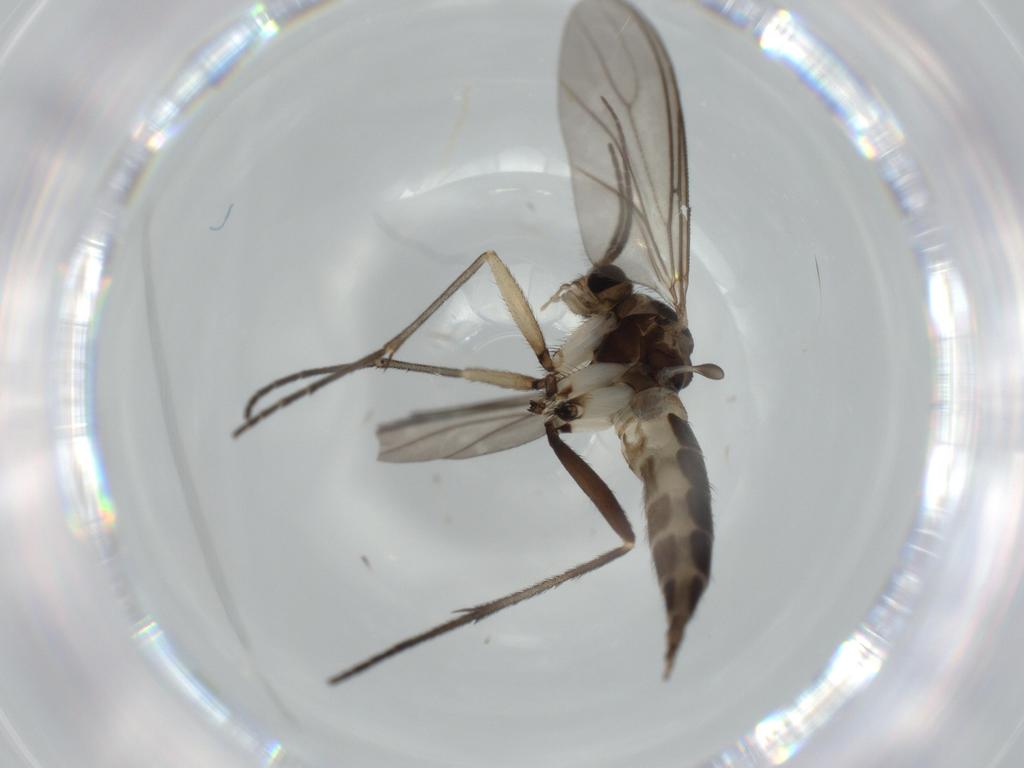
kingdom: Animalia
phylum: Arthropoda
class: Insecta
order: Diptera
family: Sciaridae
